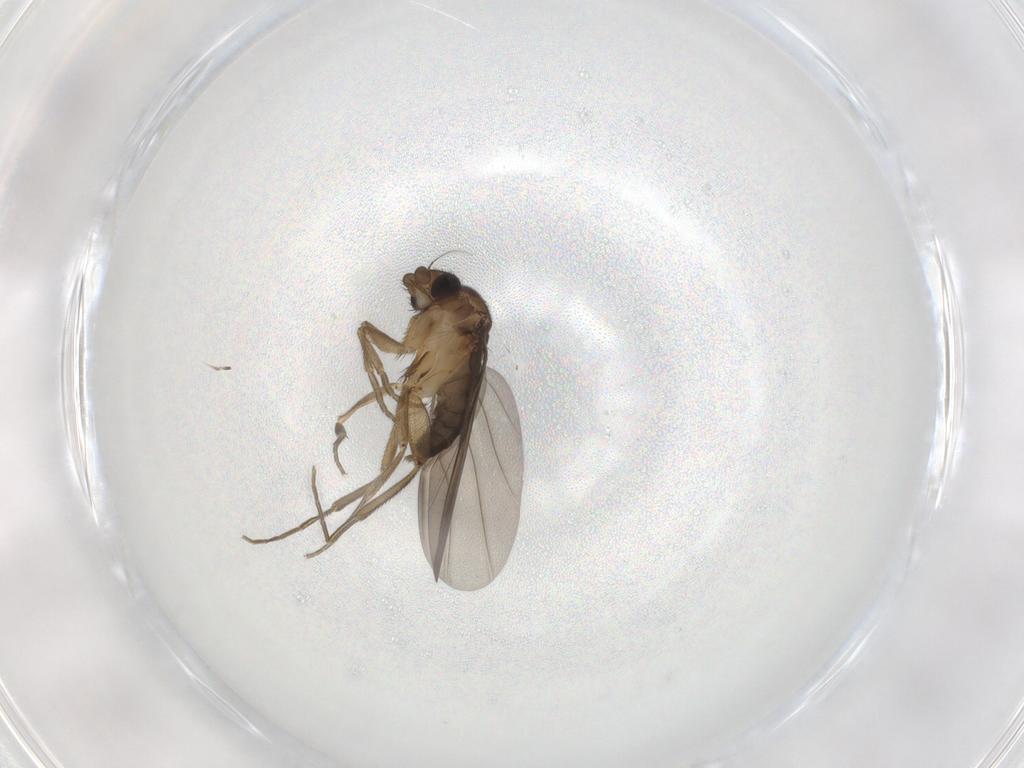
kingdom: Animalia
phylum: Arthropoda
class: Insecta
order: Diptera
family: Phoridae
